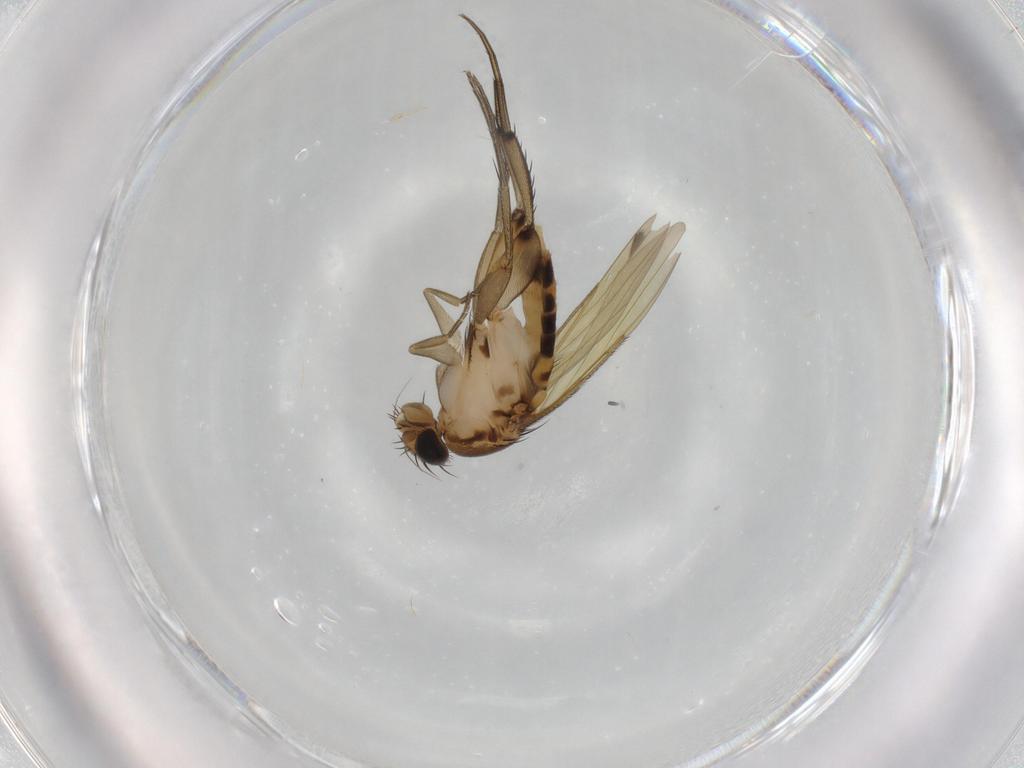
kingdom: Animalia
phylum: Arthropoda
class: Insecta
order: Diptera
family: Phoridae
